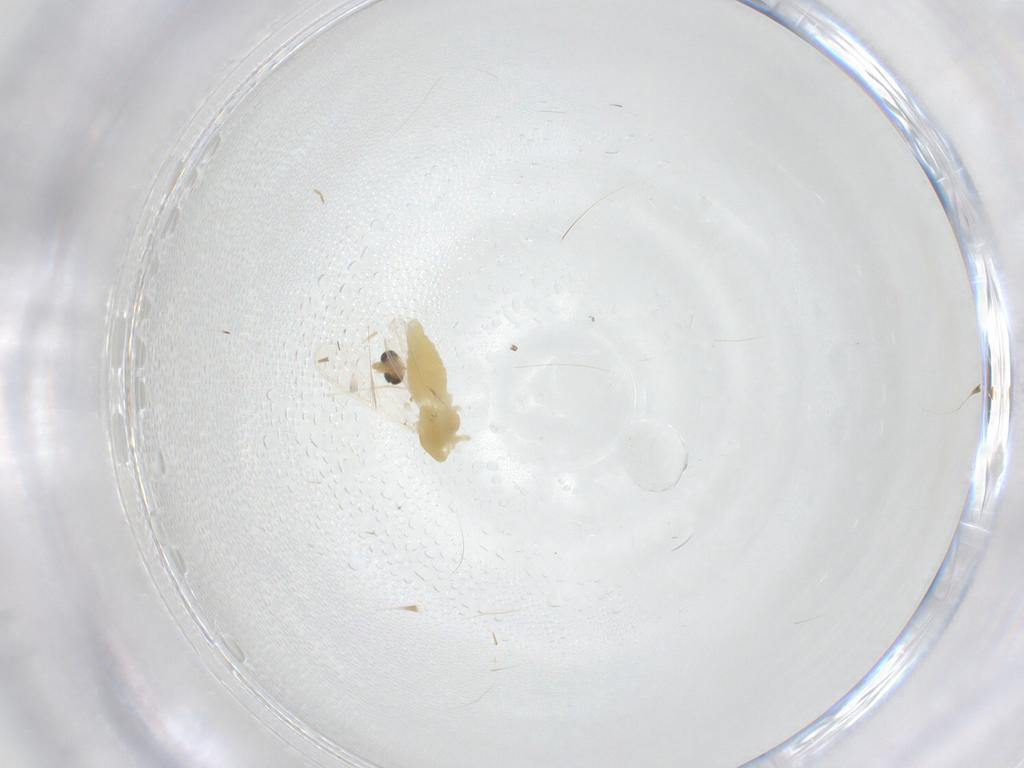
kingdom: Animalia
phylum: Arthropoda
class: Insecta
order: Diptera
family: Chironomidae
